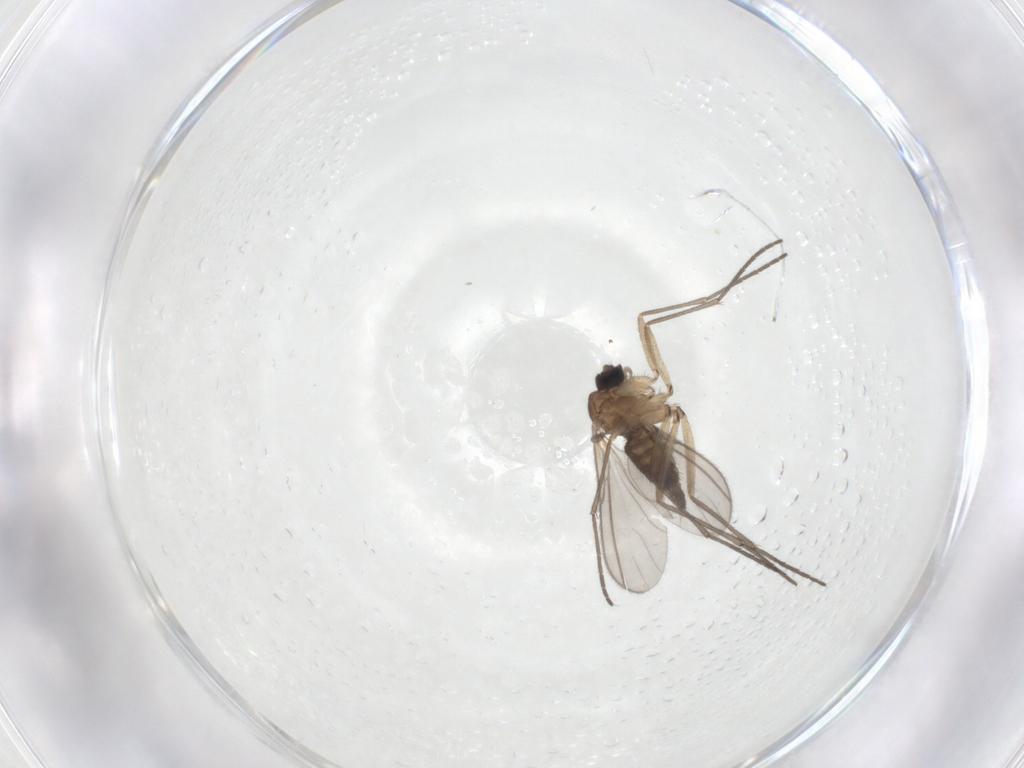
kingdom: Animalia
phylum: Arthropoda
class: Insecta
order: Diptera
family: Sciaridae
